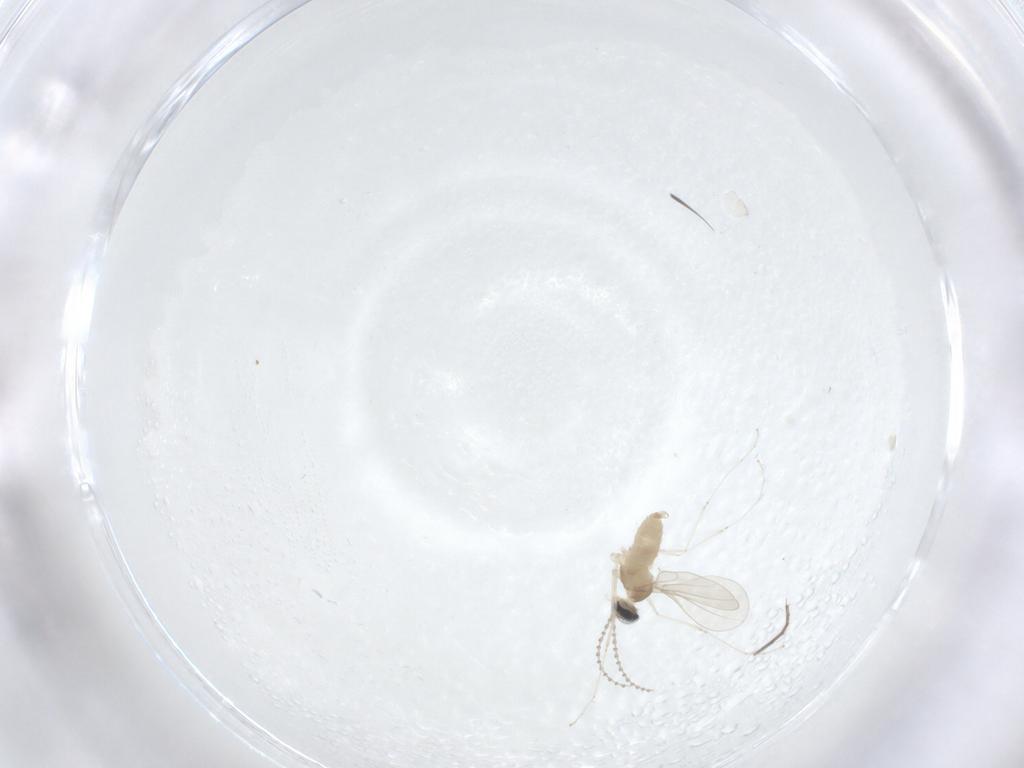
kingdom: Animalia
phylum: Arthropoda
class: Insecta
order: Diptera
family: Cecidomyiidae
